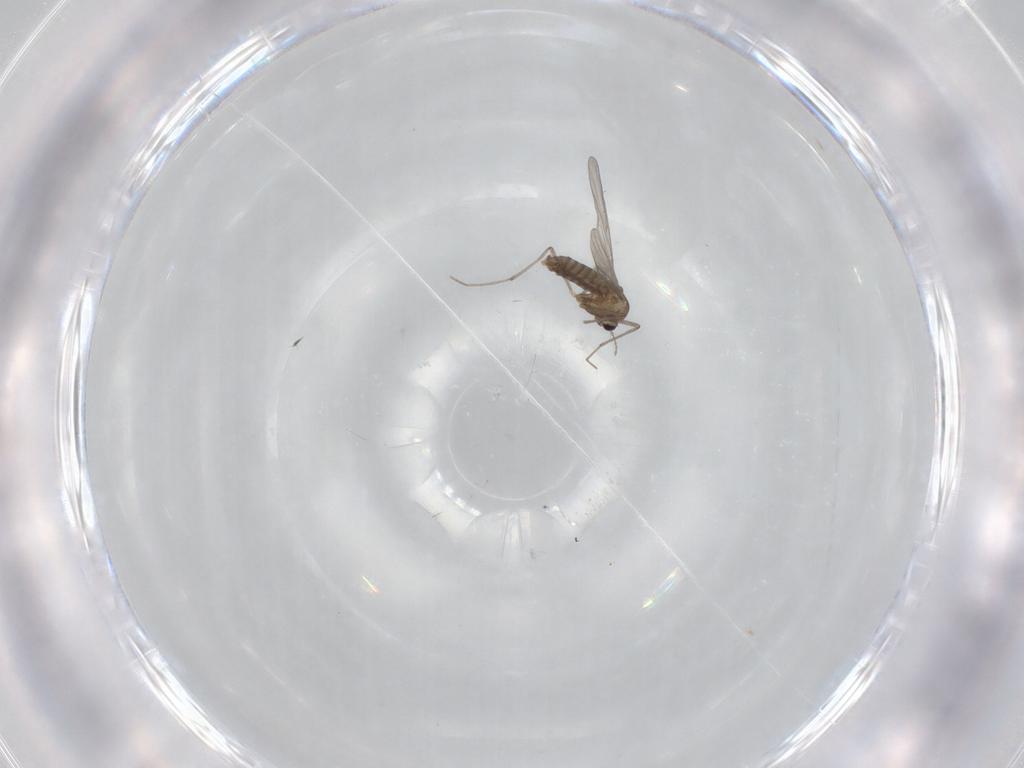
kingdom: Animalia
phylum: Arthropoda
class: Insecta
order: Diptera
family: Chironomidae
